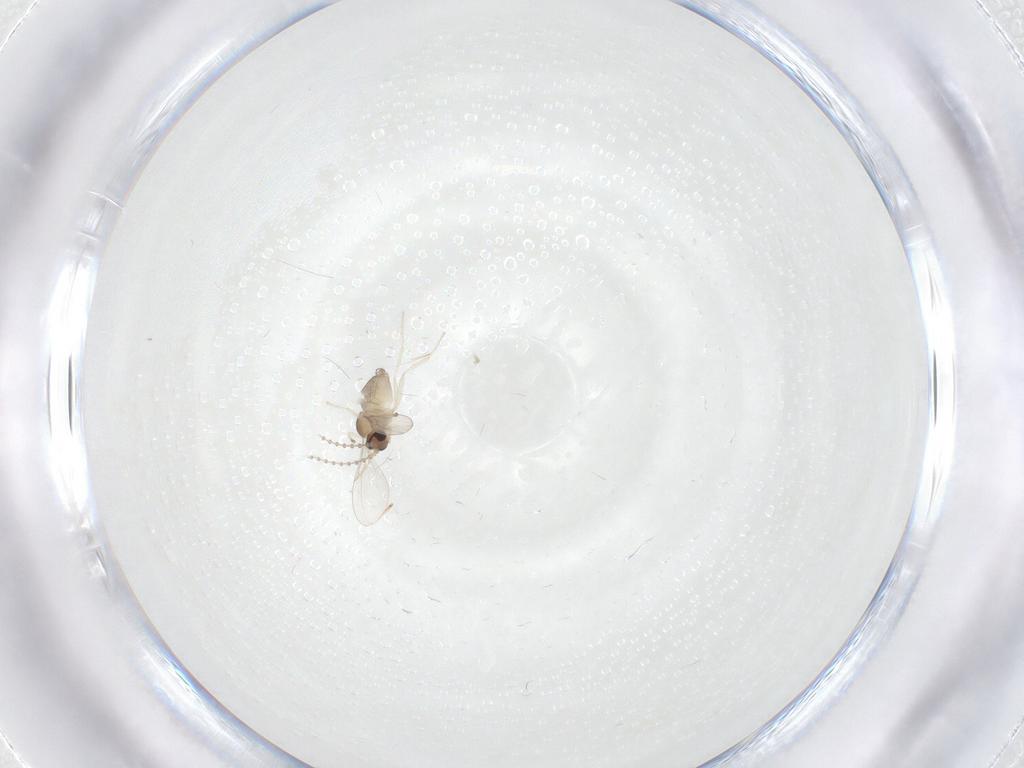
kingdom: Animalia
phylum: Arthropoda
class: Insecta
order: Diptera
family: Cecidomyiidae
